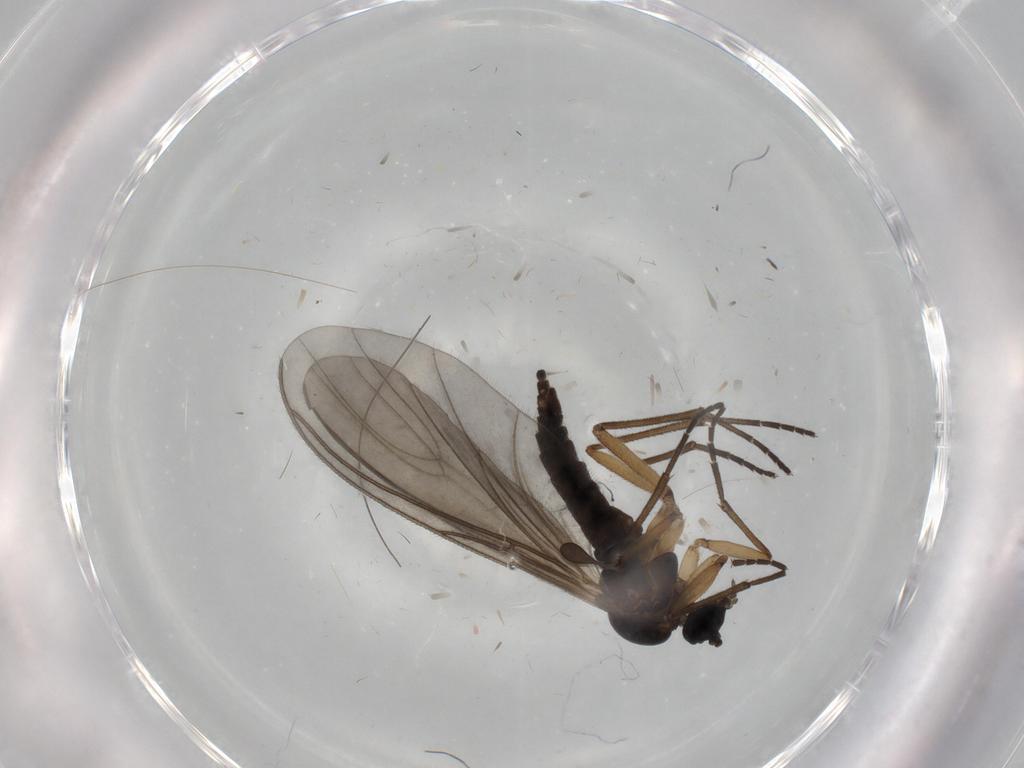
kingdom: Animalia
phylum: Arthropoda
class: Insecta
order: Diptera
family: Sciaridae
